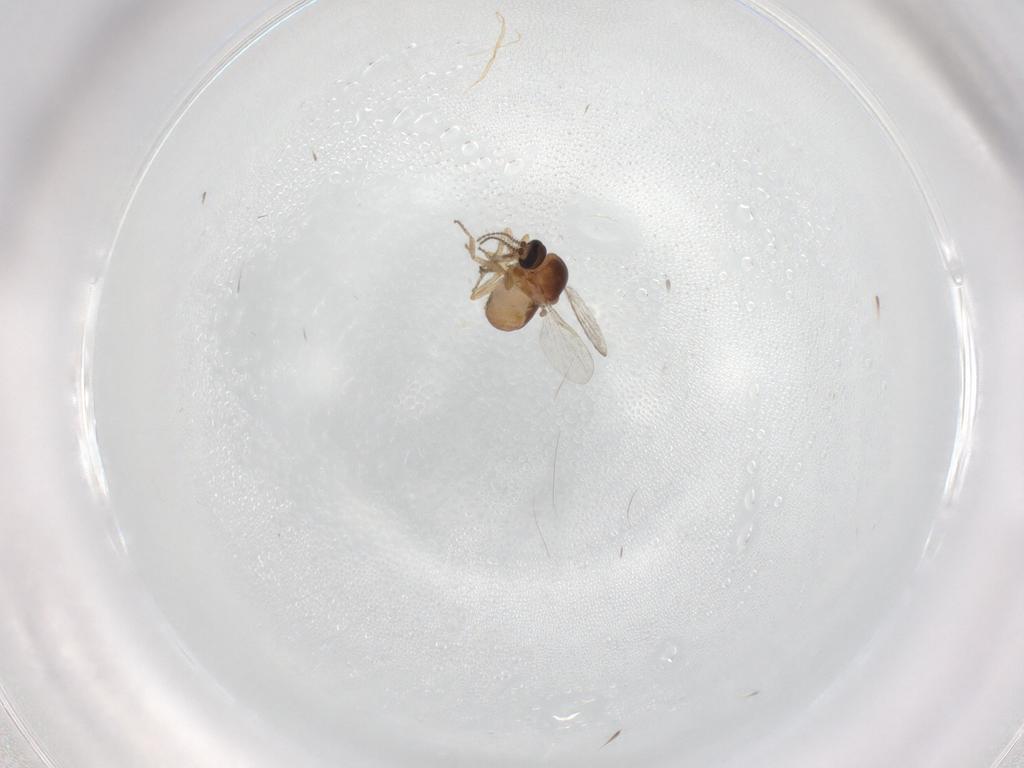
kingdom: Animalia
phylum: Arthropoda
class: Insecta
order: Diptera
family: Ceratopogonidae
